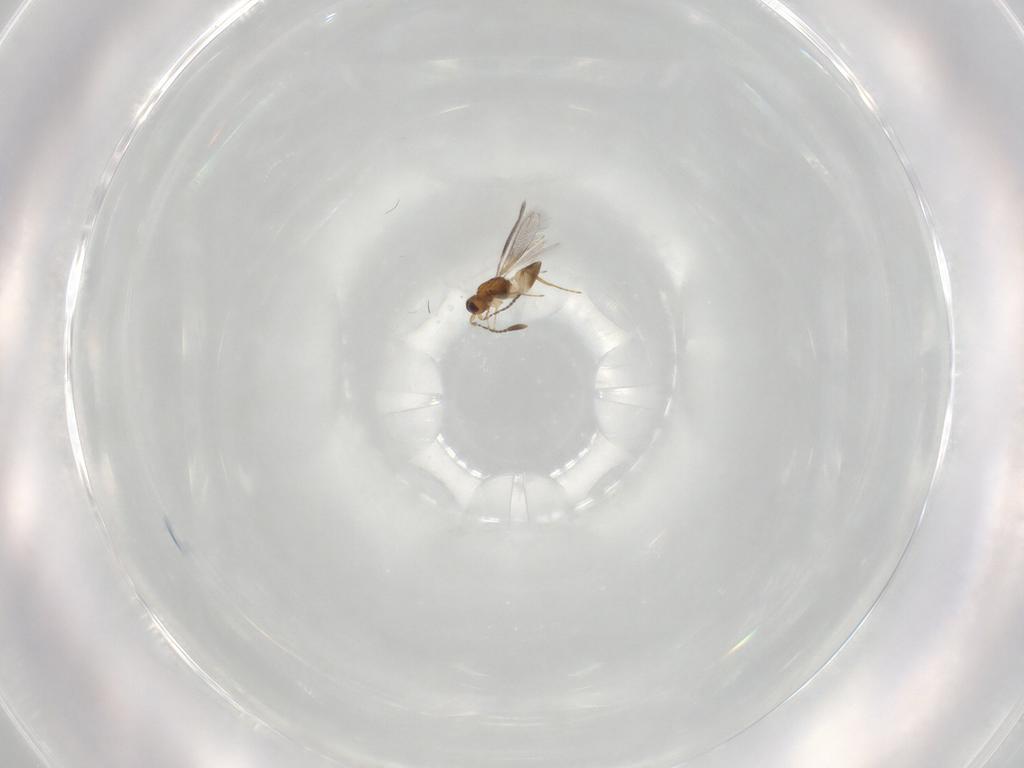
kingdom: Animalia
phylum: Arthropoda
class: Insecta
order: Hymenoptera
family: Mymaridae
